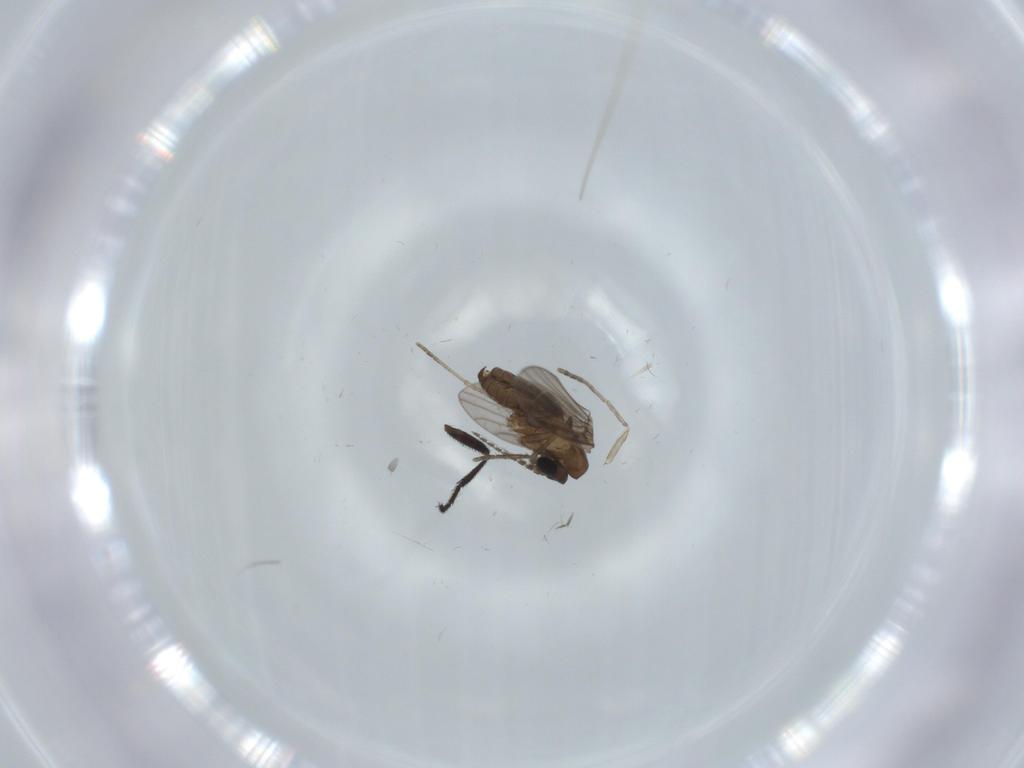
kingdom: Animalia
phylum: Arthropoda
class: Insecta
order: Diptera
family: Psychodidae
